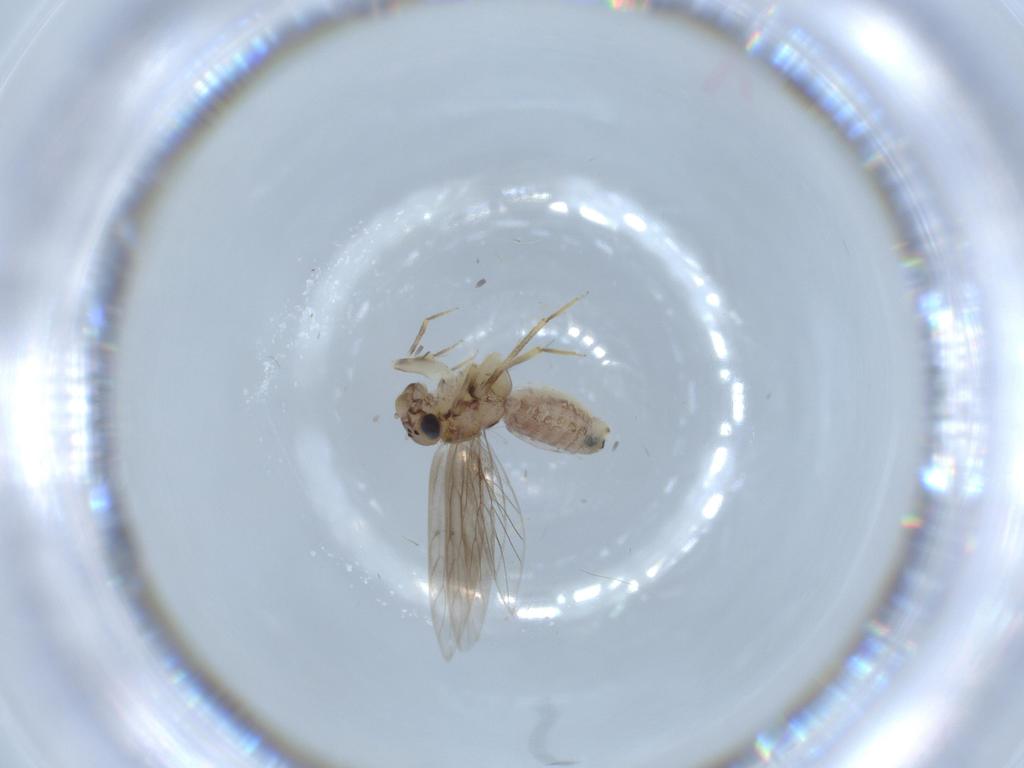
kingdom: Animalia
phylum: Arthropoda
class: Insecta
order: Psocodea
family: Lepidopsocidae
